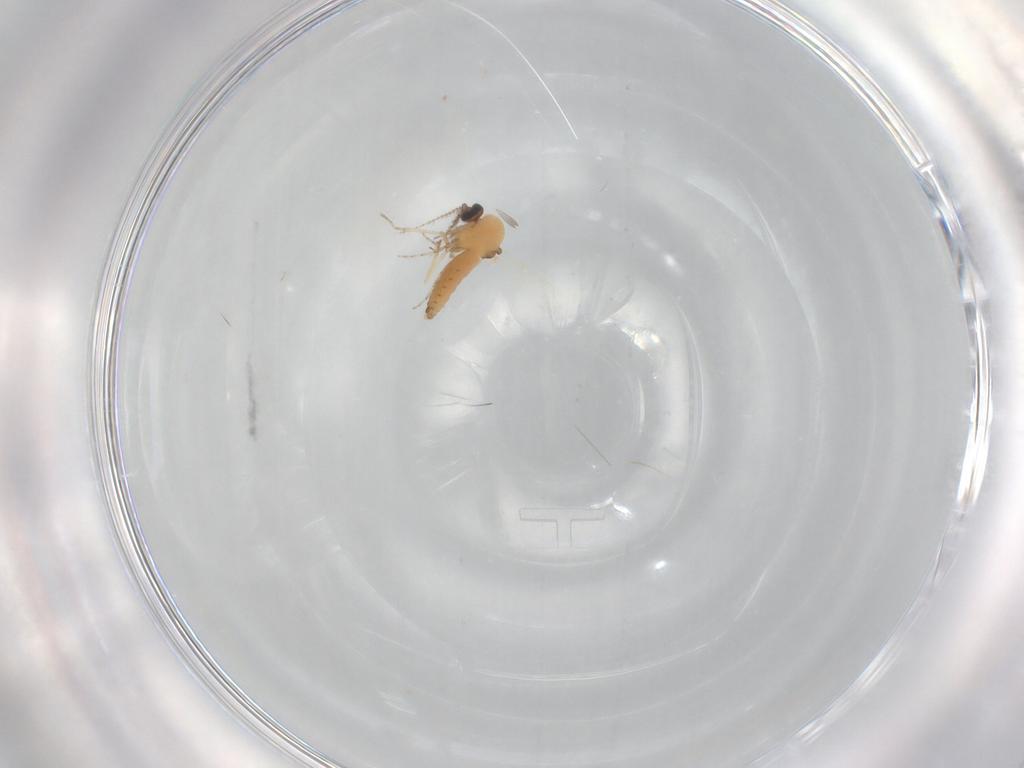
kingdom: Animalia
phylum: Arthropoda
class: Insecta
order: Diptera
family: Ceratopogonidae
